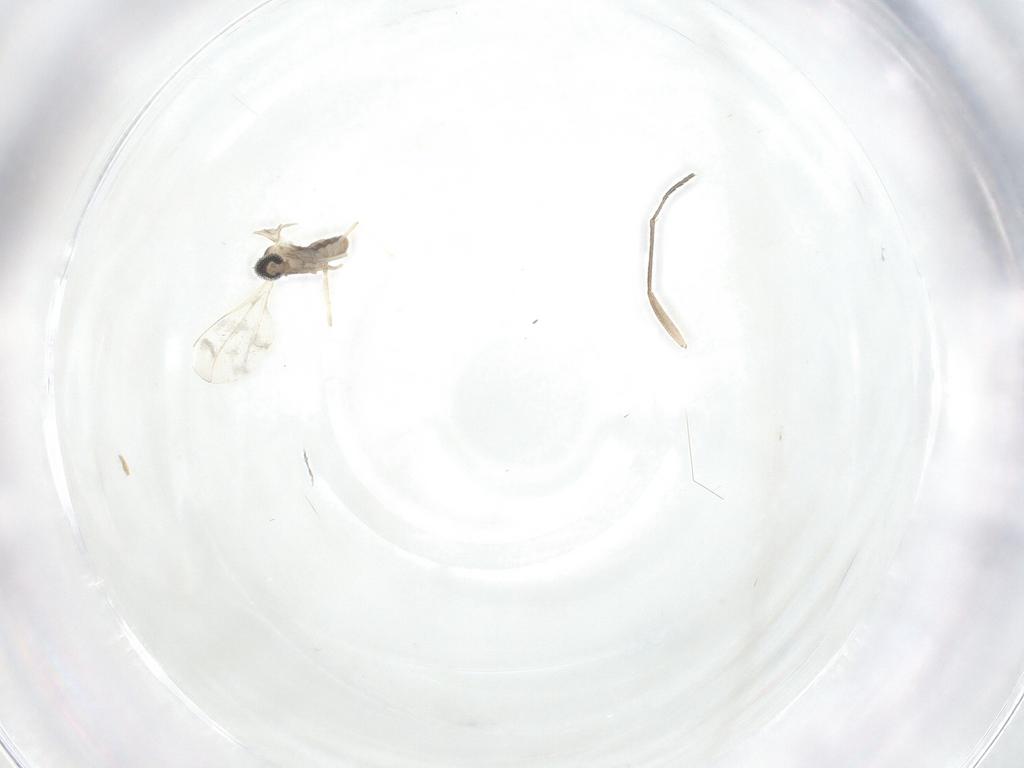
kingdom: Animalia
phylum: Arthropoda
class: Insecta
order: Diptera
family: Cecidomyiidae
